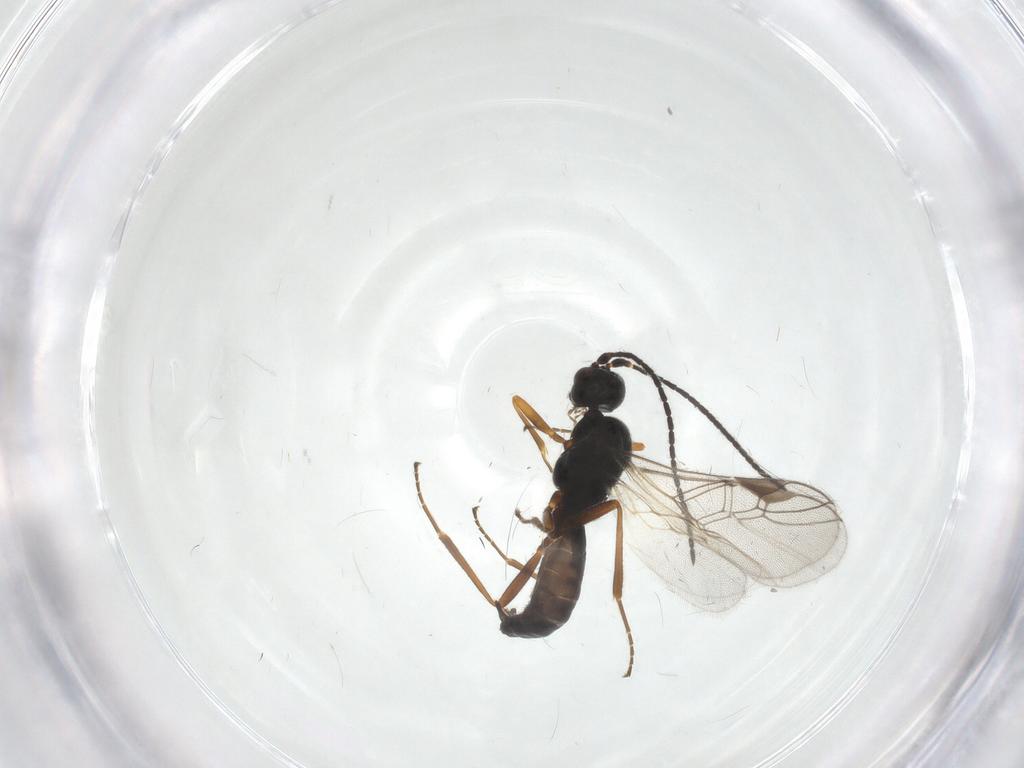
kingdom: Animalia
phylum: Arthropoda
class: Insecta
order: Hymenoptera
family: Braconidae
